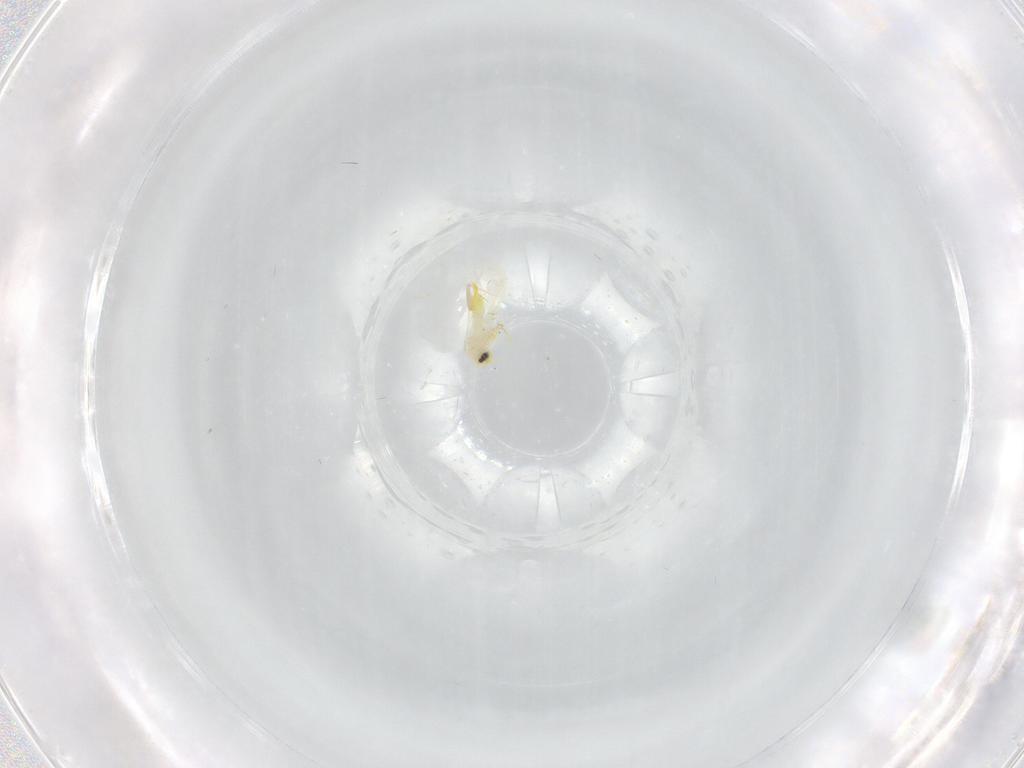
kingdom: Animalia
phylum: Arthropoda
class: Insecta
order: Hemiptera
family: Aleyrodidae
